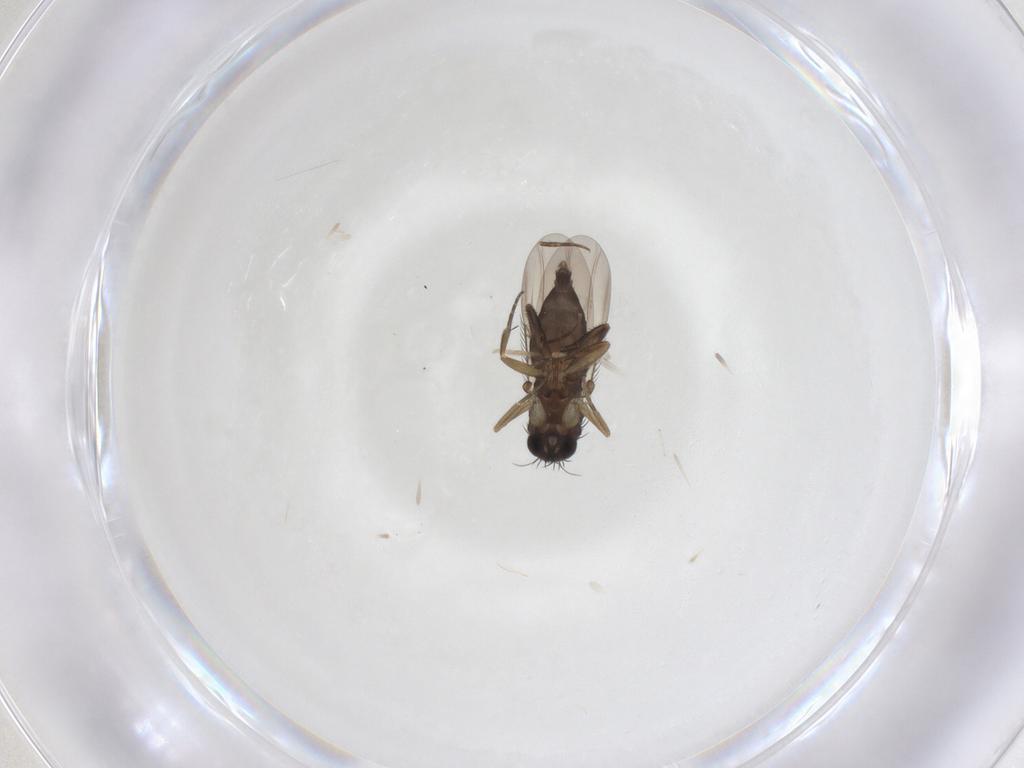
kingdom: Animalia
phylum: Arthropoda
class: Insecta
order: Diptera
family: Phoridae
